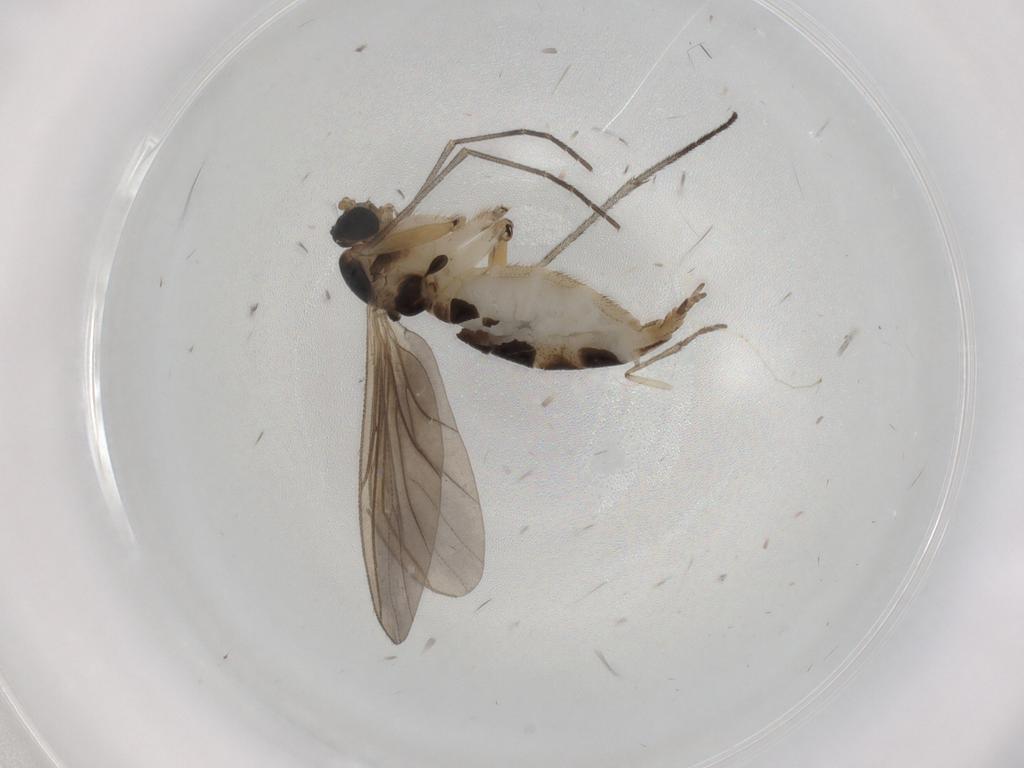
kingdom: Animalia
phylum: Arthropoda
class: Insecta
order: Diptera
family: Sciaridae
